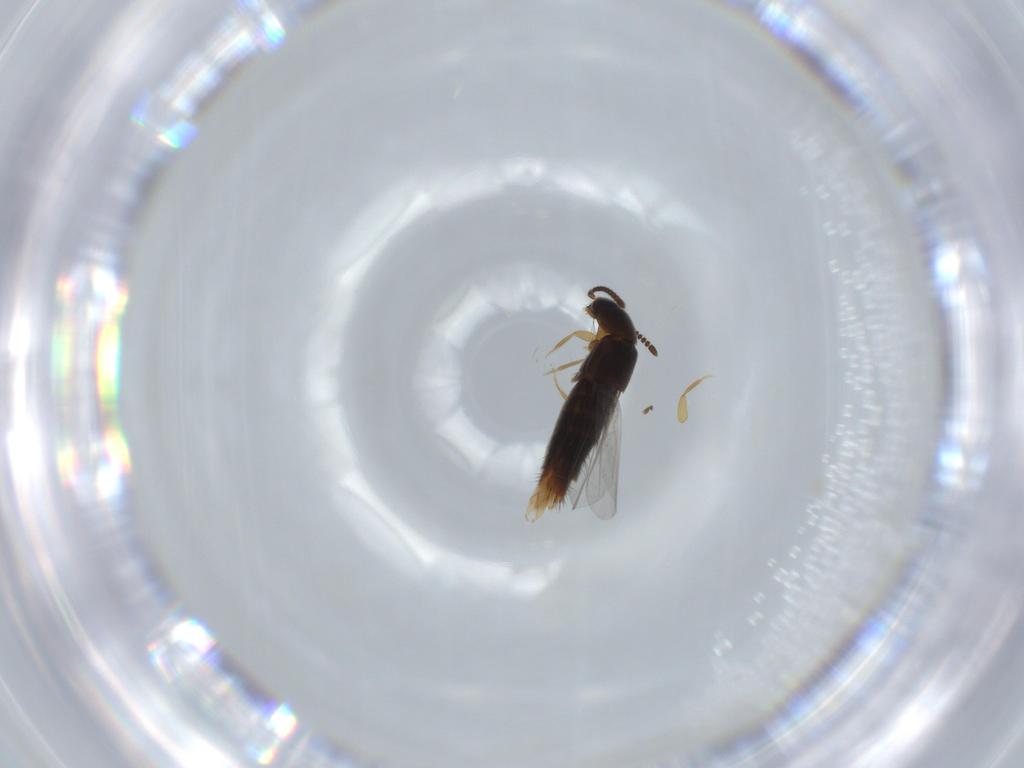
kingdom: Animalia
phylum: Arthropoda
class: Insecta
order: Coleoptera
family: Staphylinidae
